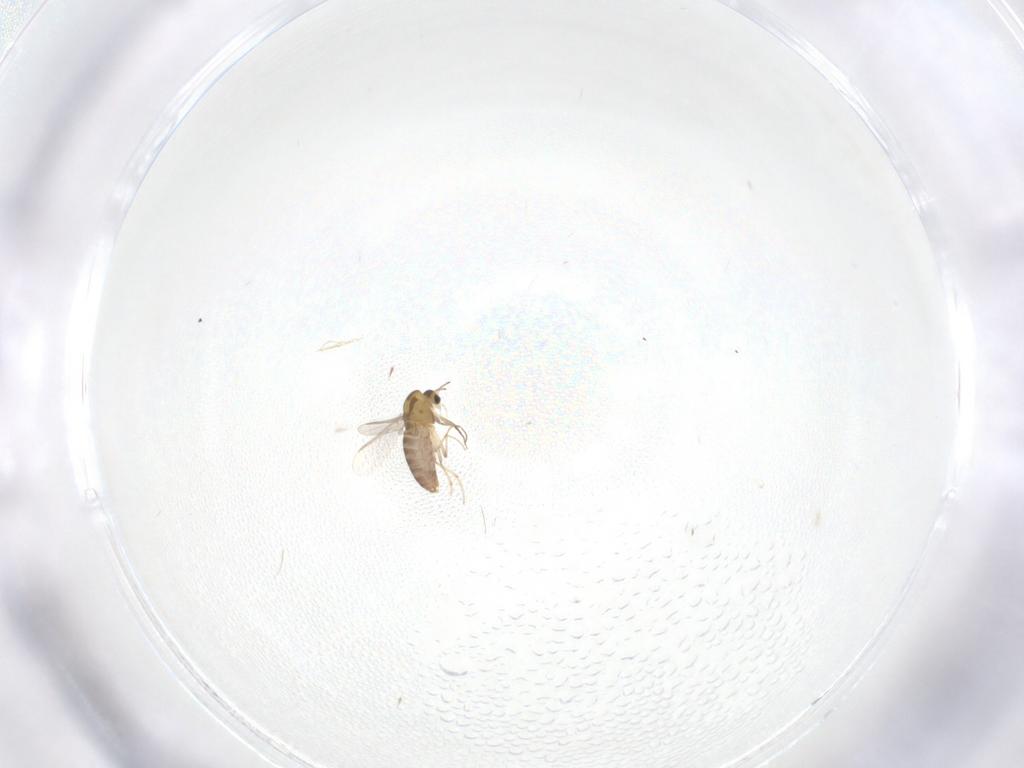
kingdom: Animalia
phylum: Arthropoda
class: Insecta
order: Diptera
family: Chironomidae
